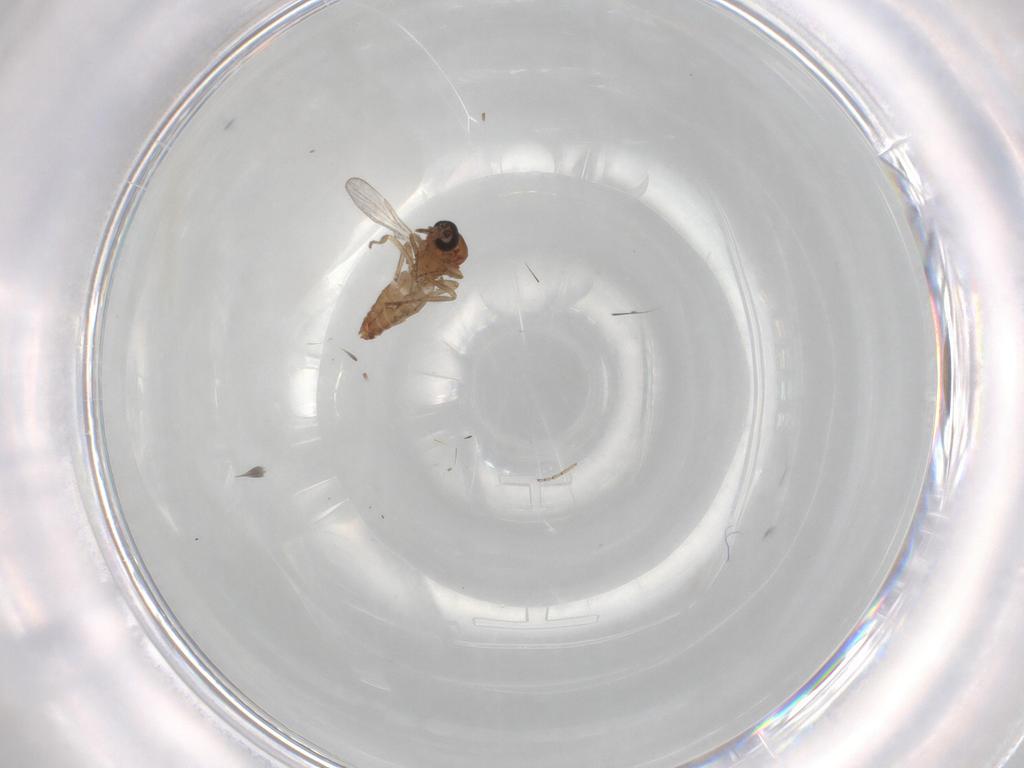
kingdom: Animalia
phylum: Arthropoda
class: Insecta
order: Diptera
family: Ceratopogonidae
